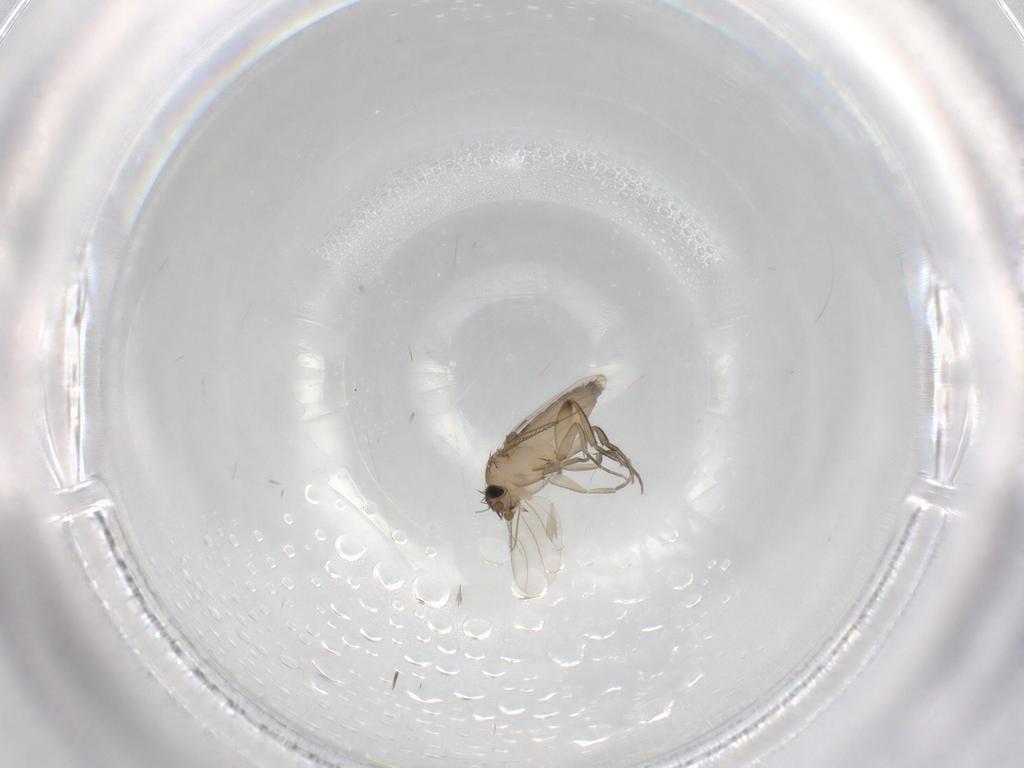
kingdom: Animalia
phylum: Arthropoda
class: Insecta
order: Diptera
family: Phoridae
